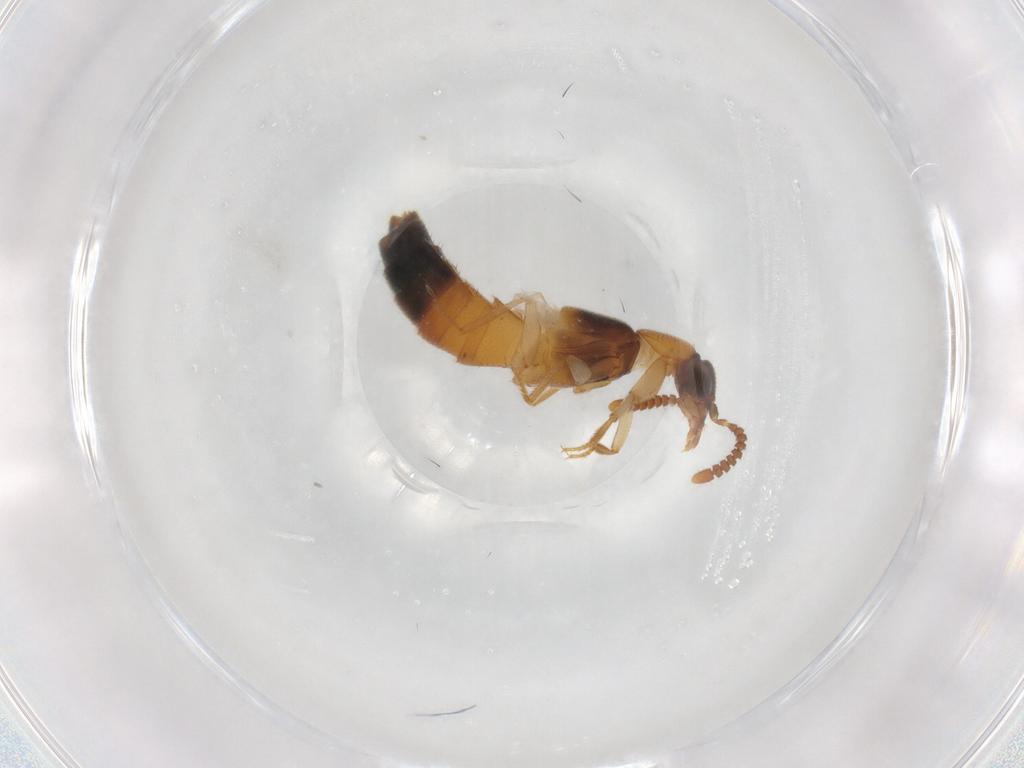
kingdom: Animalia
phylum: Arthropoda
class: Insecta
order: Coleoptera
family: Staphylinidae
